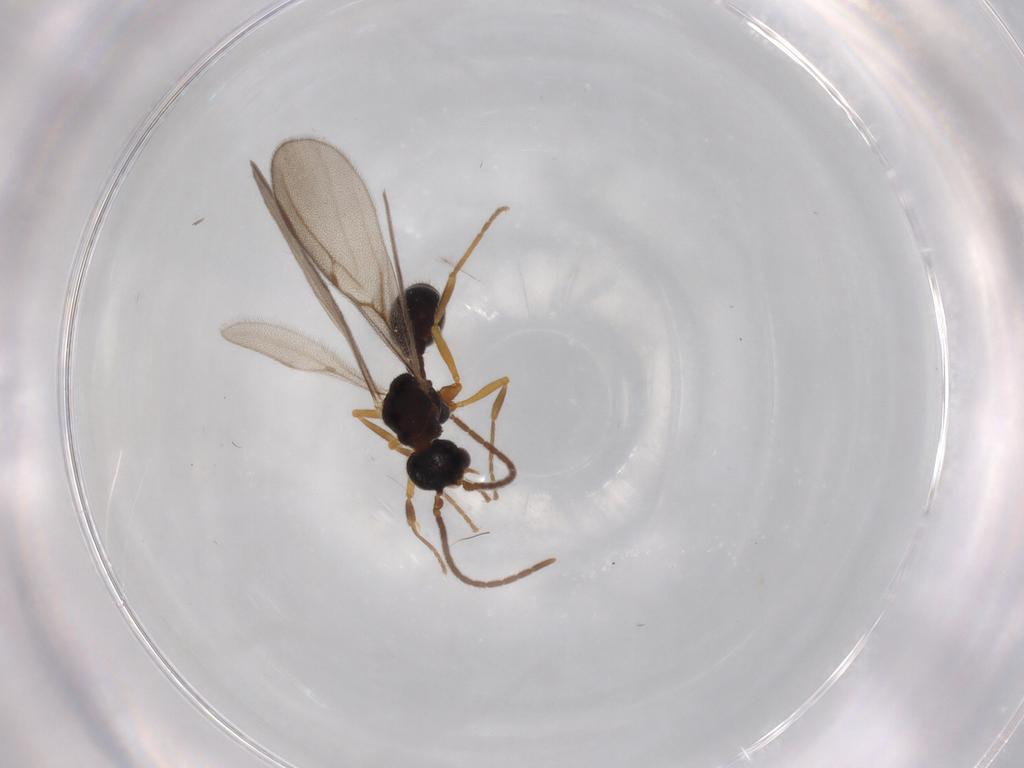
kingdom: Animalia
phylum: Arthropoda
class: Insecta
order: Hymenoptera
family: Formicidae
